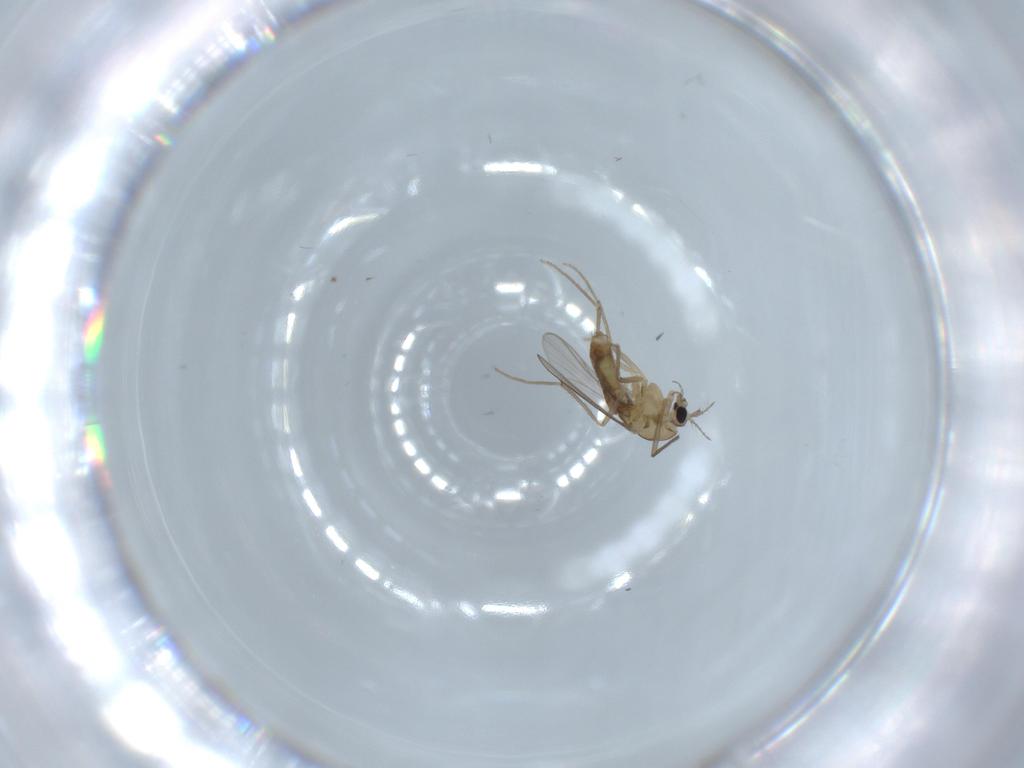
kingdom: Animalia
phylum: Arthropoda
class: Insecta
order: Diptera
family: Chironomidae
